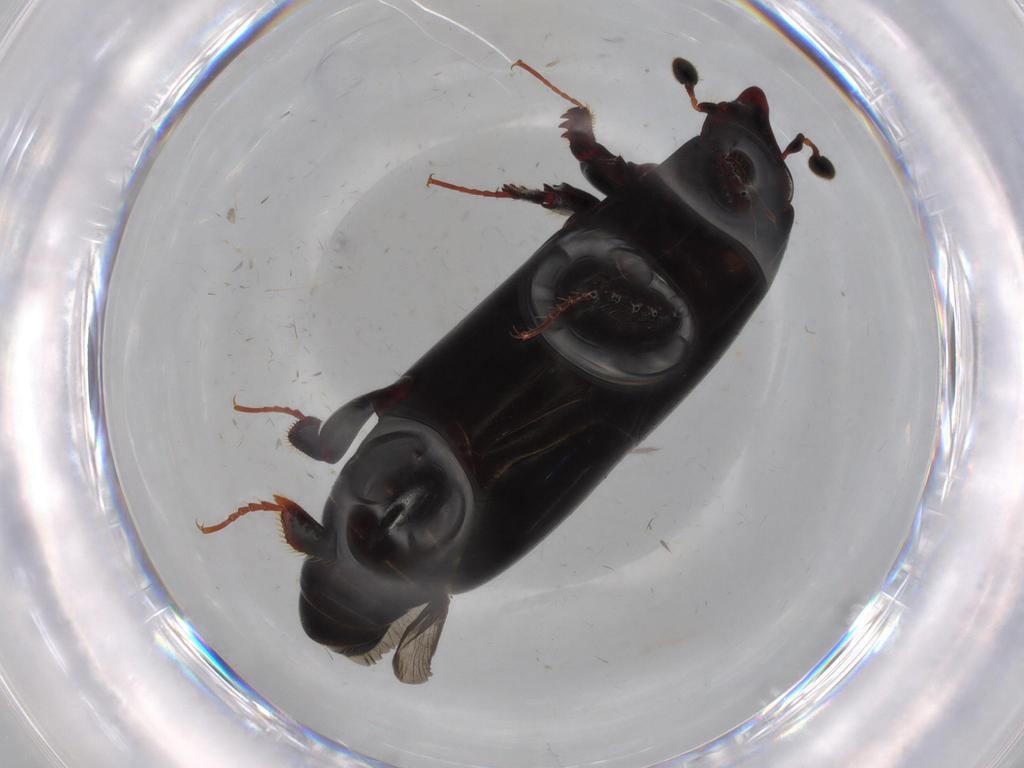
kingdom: Animalia
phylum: Arthropoda
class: Insecta
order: Coleoptera
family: Histeridae
